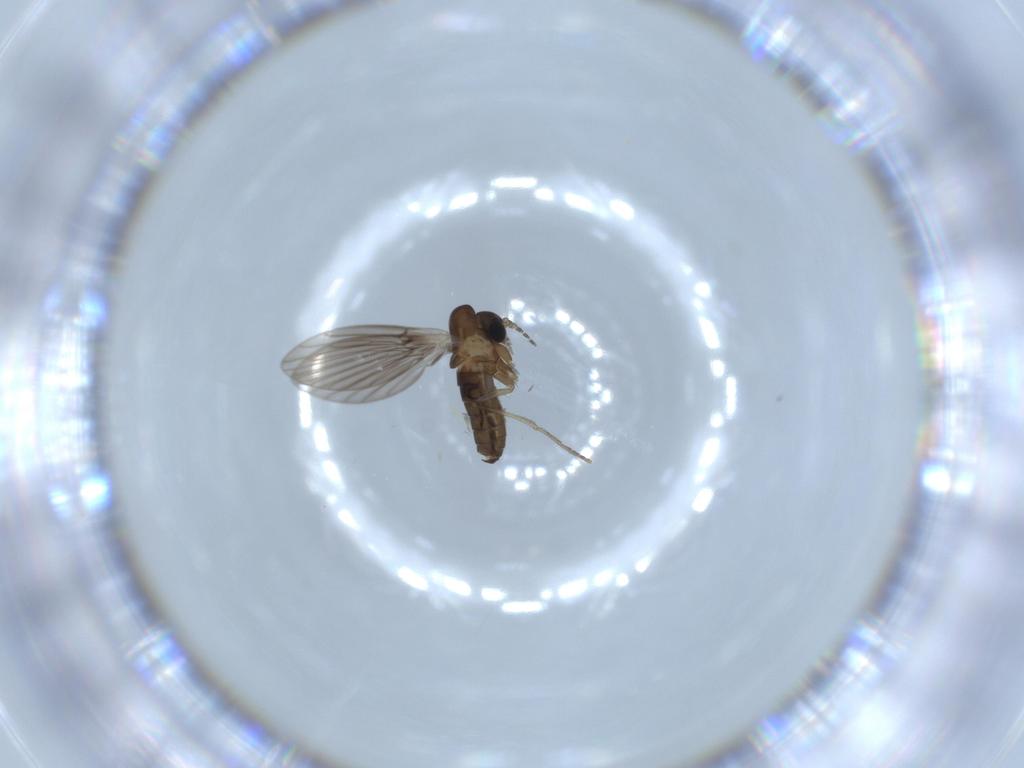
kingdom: Animalia
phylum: Arthropoda
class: Insecta
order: Diptera
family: Psychodidae
